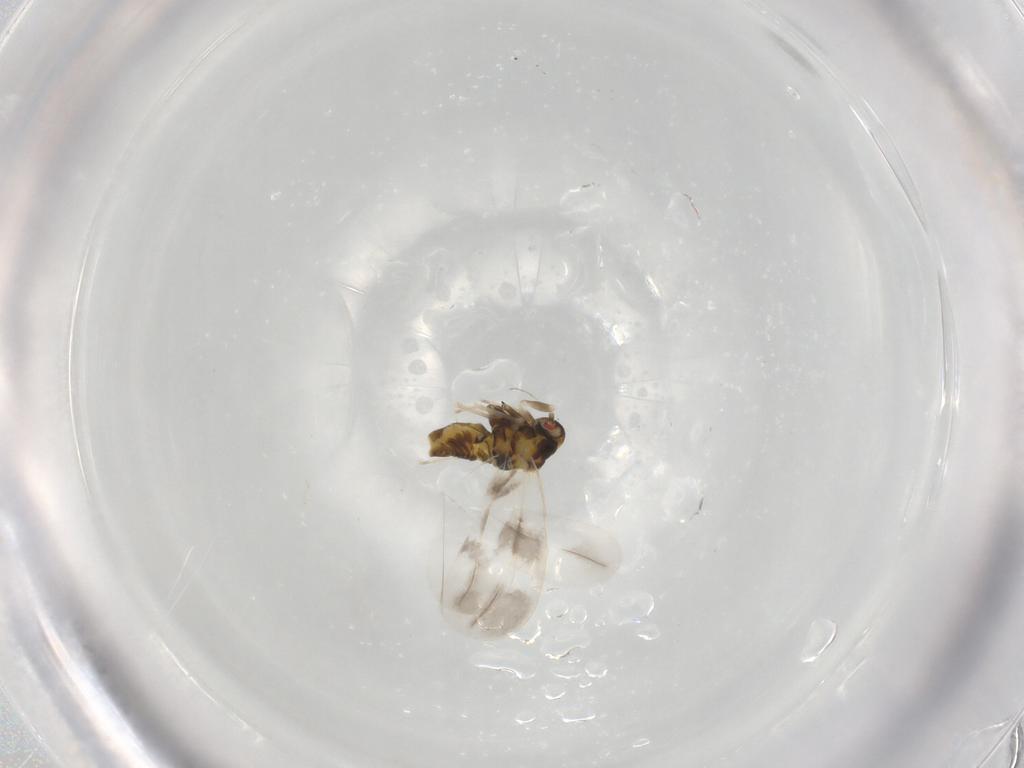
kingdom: Animalia
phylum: Arthropoda
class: Insecta
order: Hemiptera
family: Aleyrodidae
